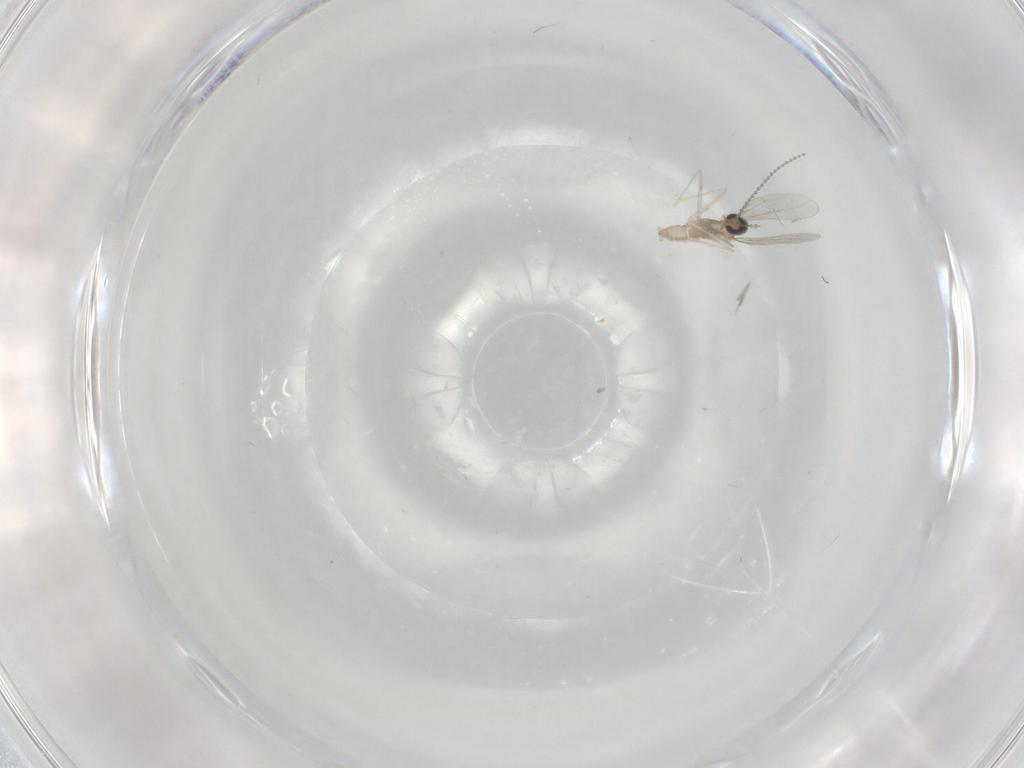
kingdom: Animalia
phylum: Arthropoda
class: Insecta
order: Diptera
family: Cecidomyiidae
